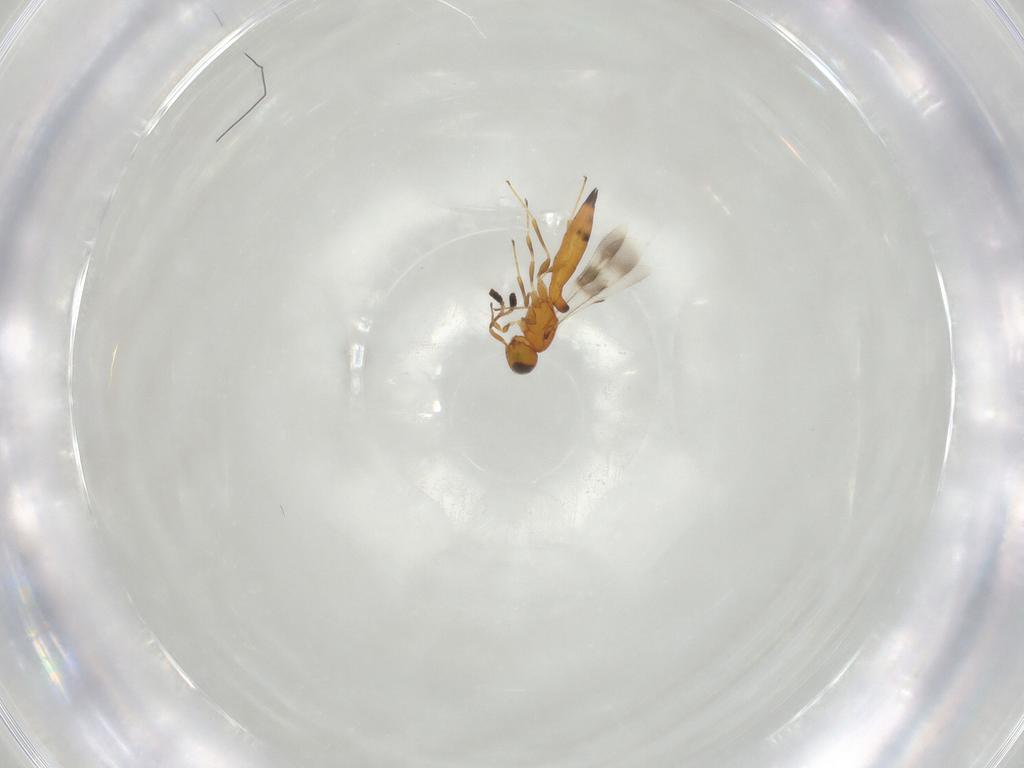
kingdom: Animalia
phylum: Arthropoda
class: Insecta
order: Hymenoptera
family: Scelionidae
